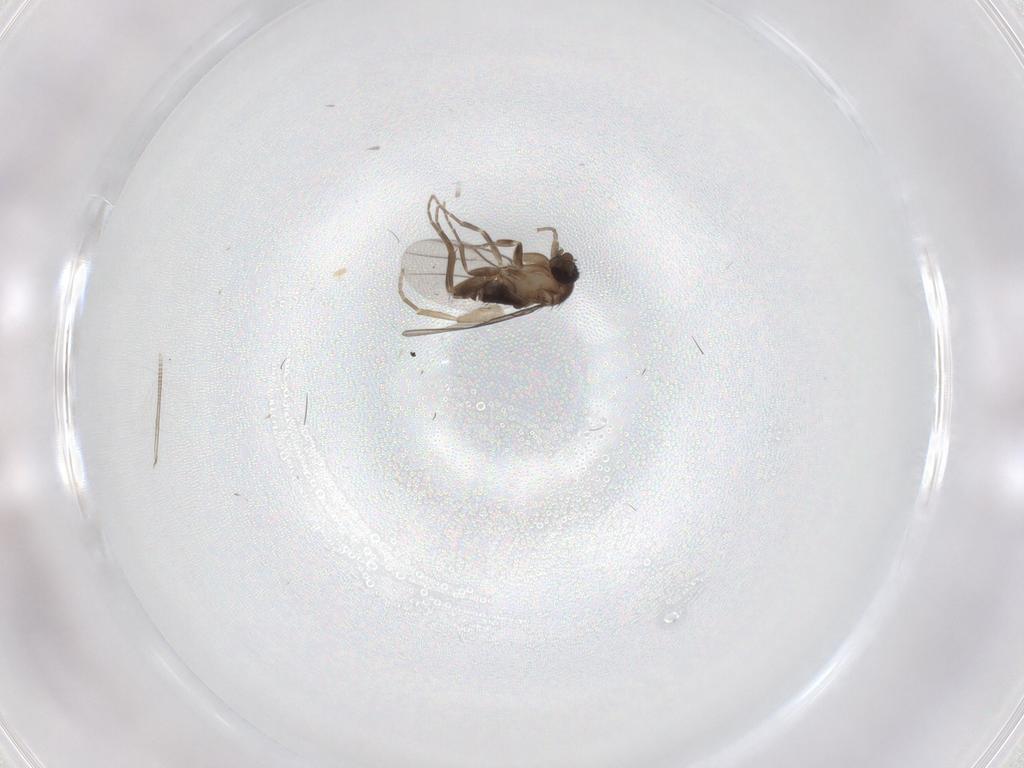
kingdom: Animalia
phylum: Arthropoda
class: Insecta
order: Diptera
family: Phoridae
